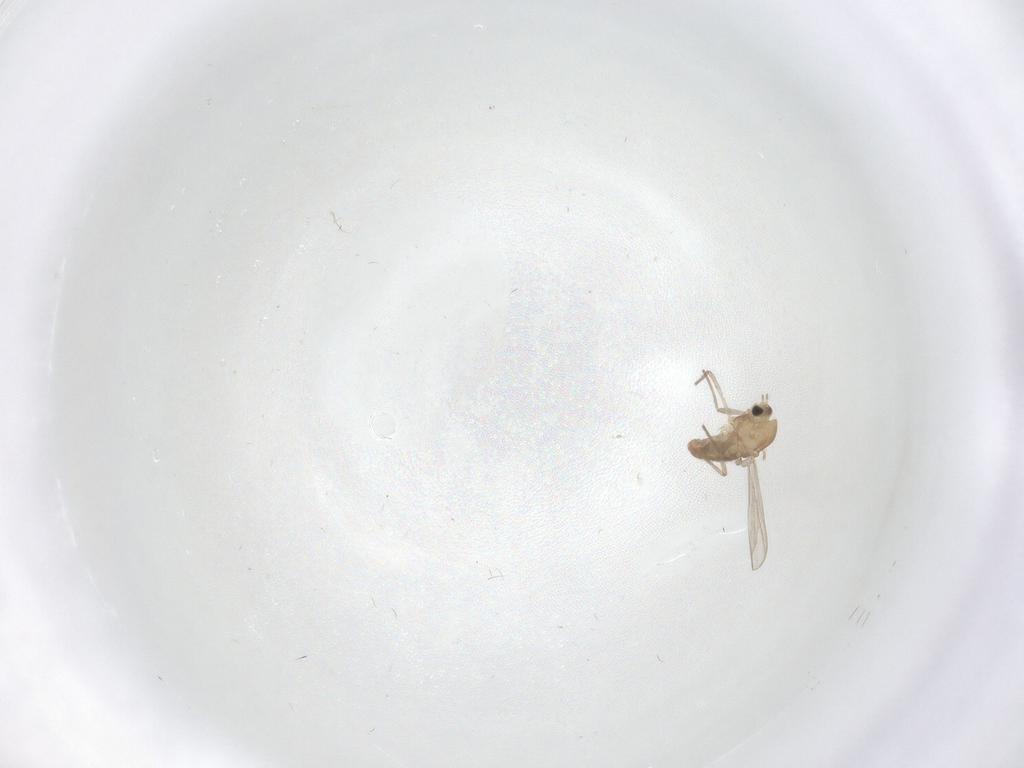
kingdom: Animalia
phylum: Arthropoda
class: Insecta
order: Diptera
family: Chironomidae
